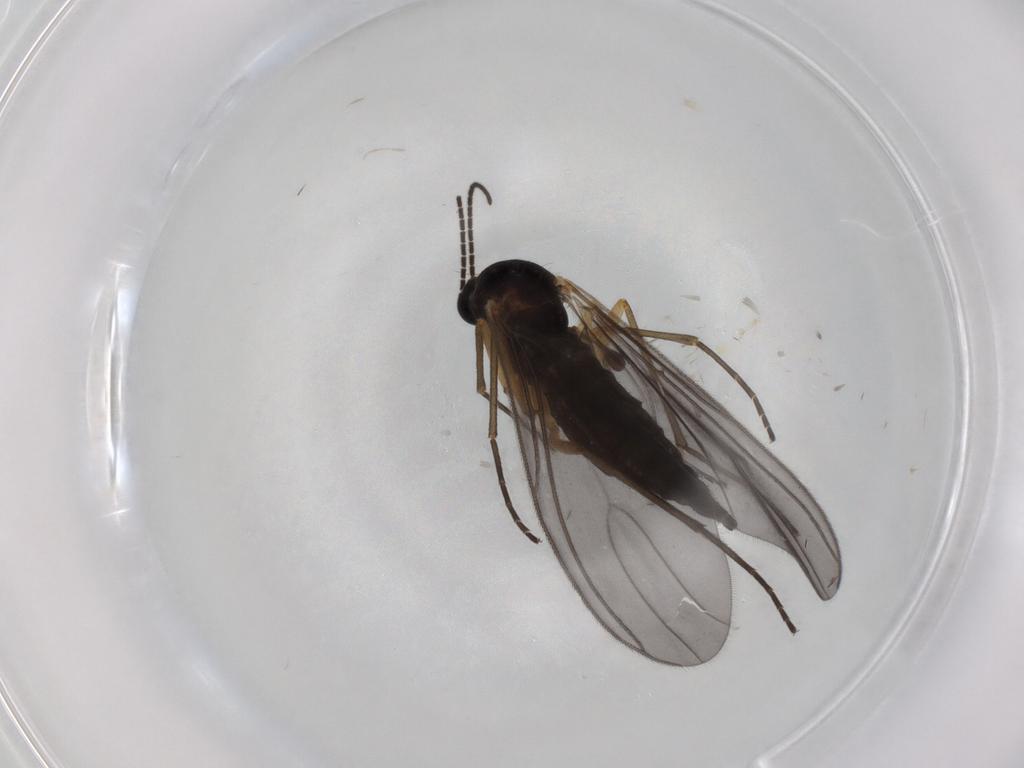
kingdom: Animalia
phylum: Arthropoda
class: Insecta
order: Diptera
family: Sciaridae
